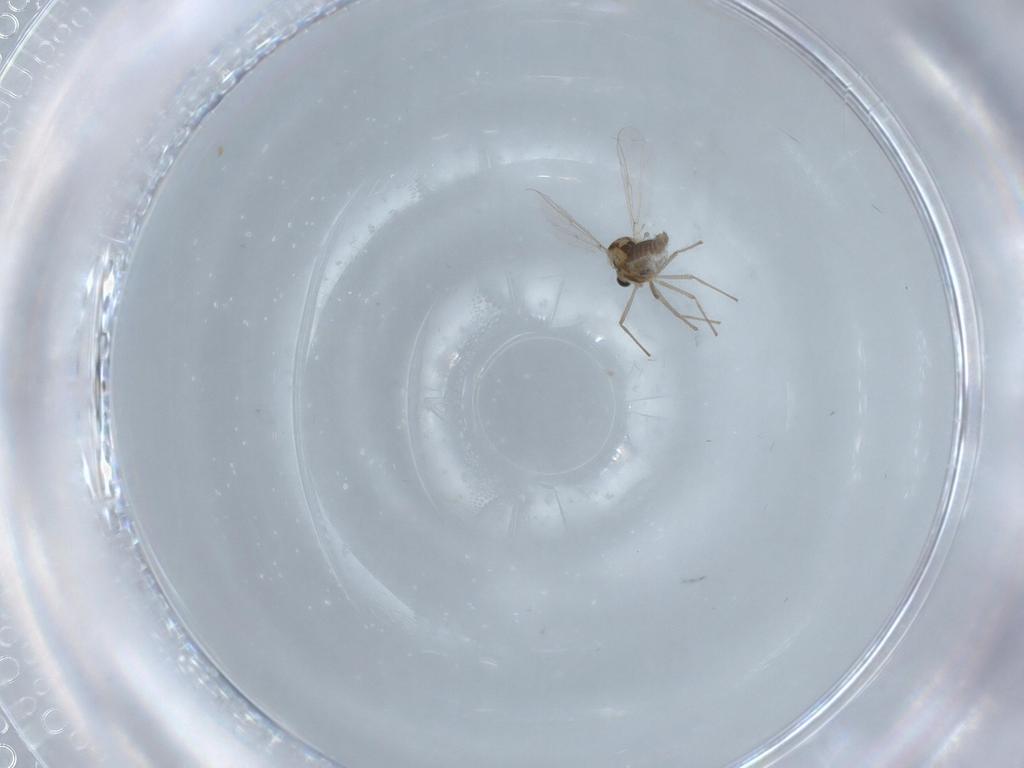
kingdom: Animalia
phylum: Arthropoda
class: Insecta
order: Diptera
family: Chironomidae
